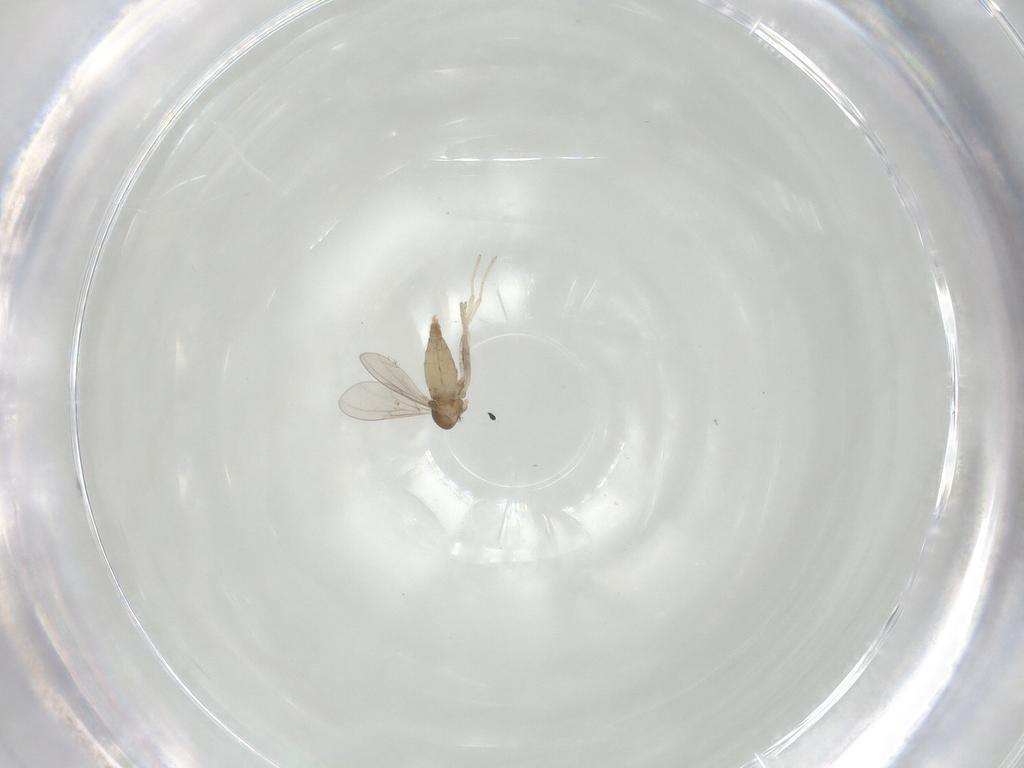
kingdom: Animalia
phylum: Arthropoda
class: Insecta
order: Diptera
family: Cecidomyiidae
